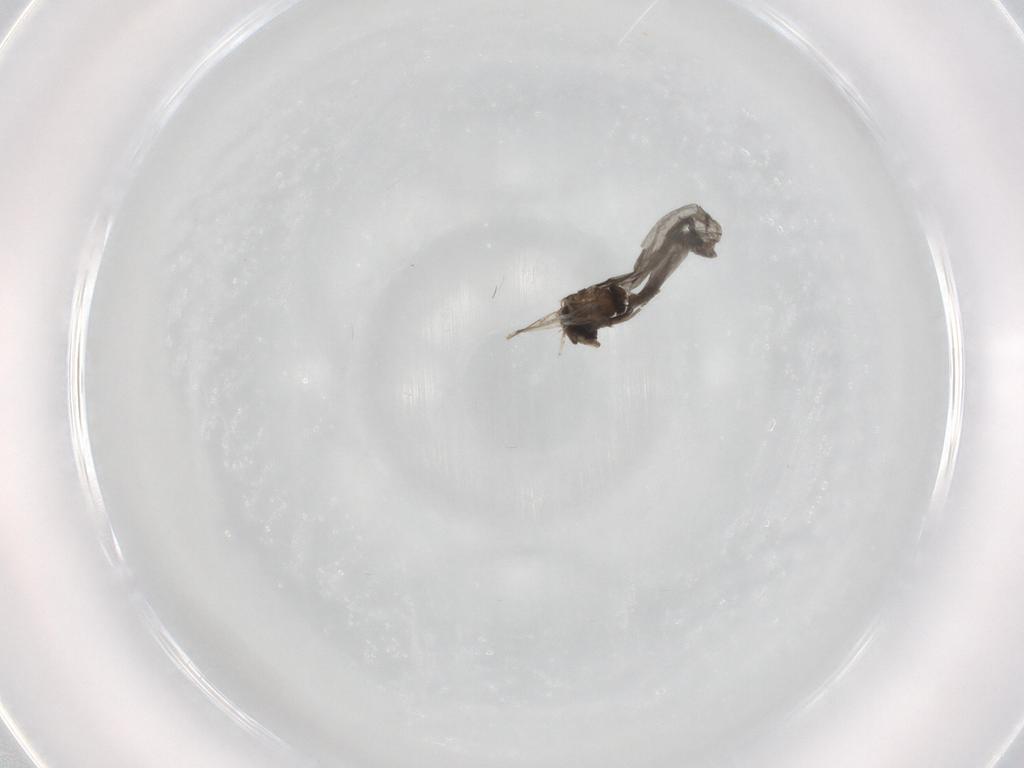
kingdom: Animalia
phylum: Arthropoda
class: Insecta
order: Diptera
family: Phoridae
